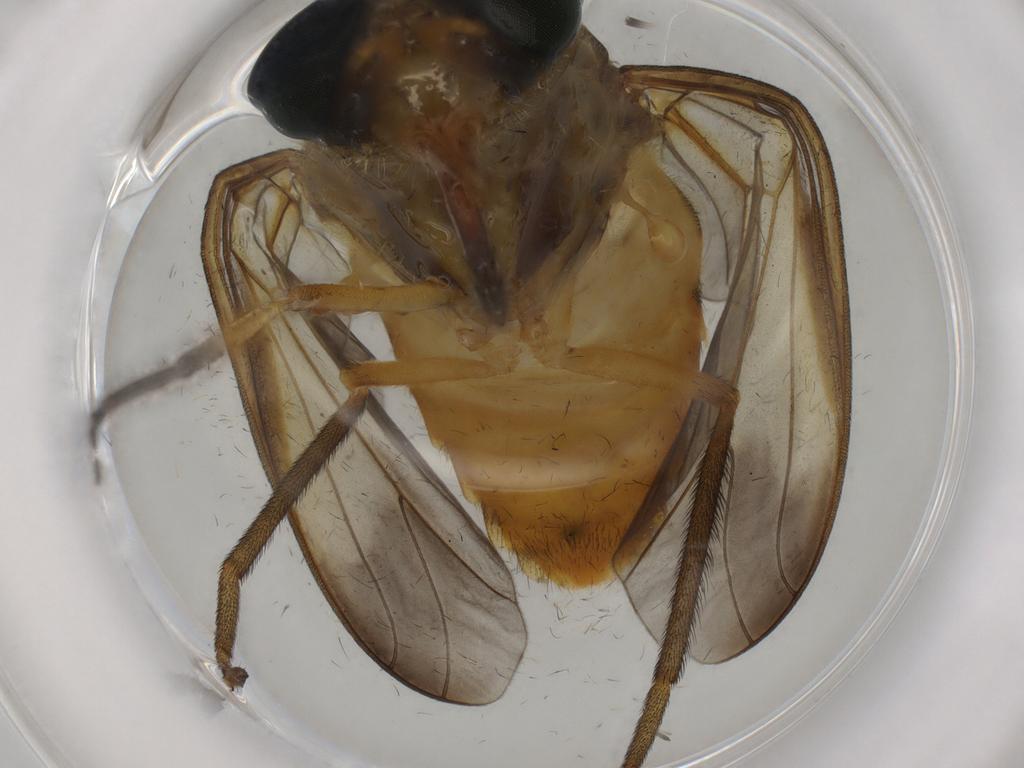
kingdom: Animalia
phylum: Arthropoda
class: Insecta
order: Diptera
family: Tabanidae
